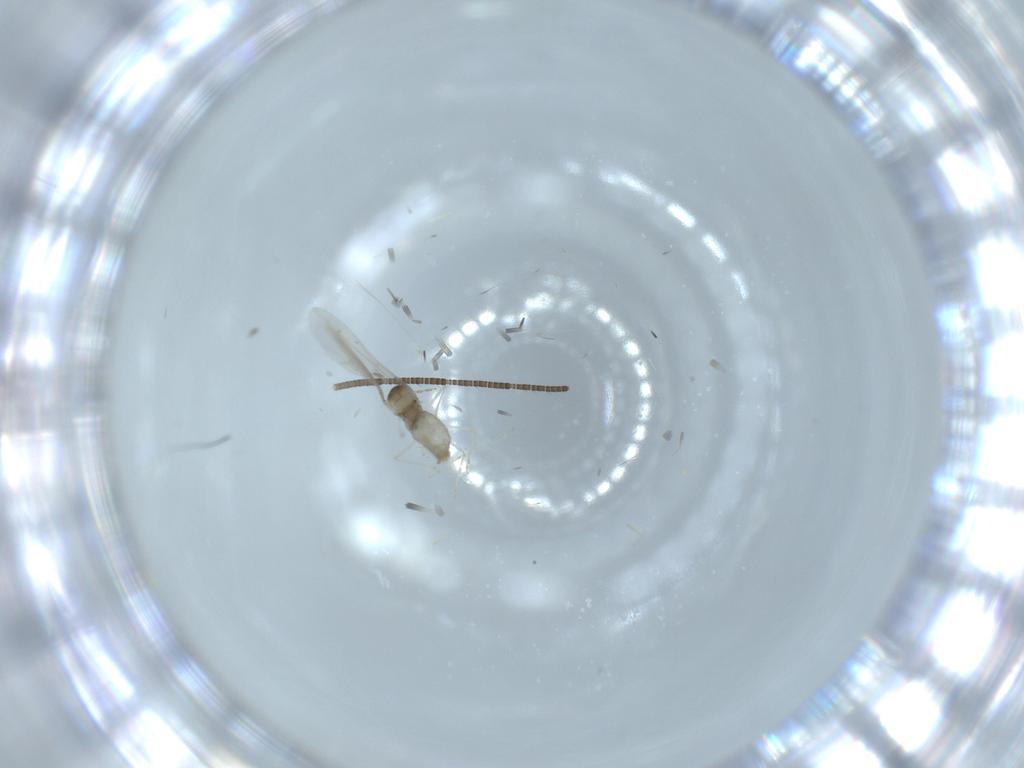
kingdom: Animalia
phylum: Arthropoda
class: Insecta
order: Diptera
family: Cecidomyiidae
